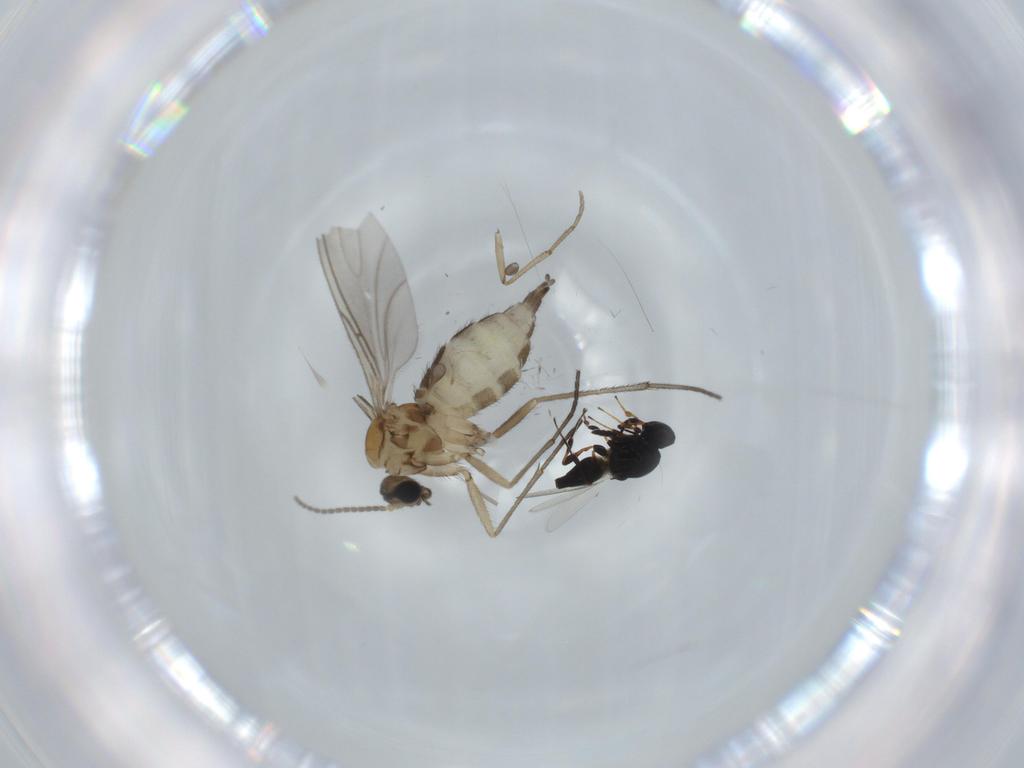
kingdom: Animalia
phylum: Arthropoda
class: Insecta
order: Diptera
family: Sciaridae
